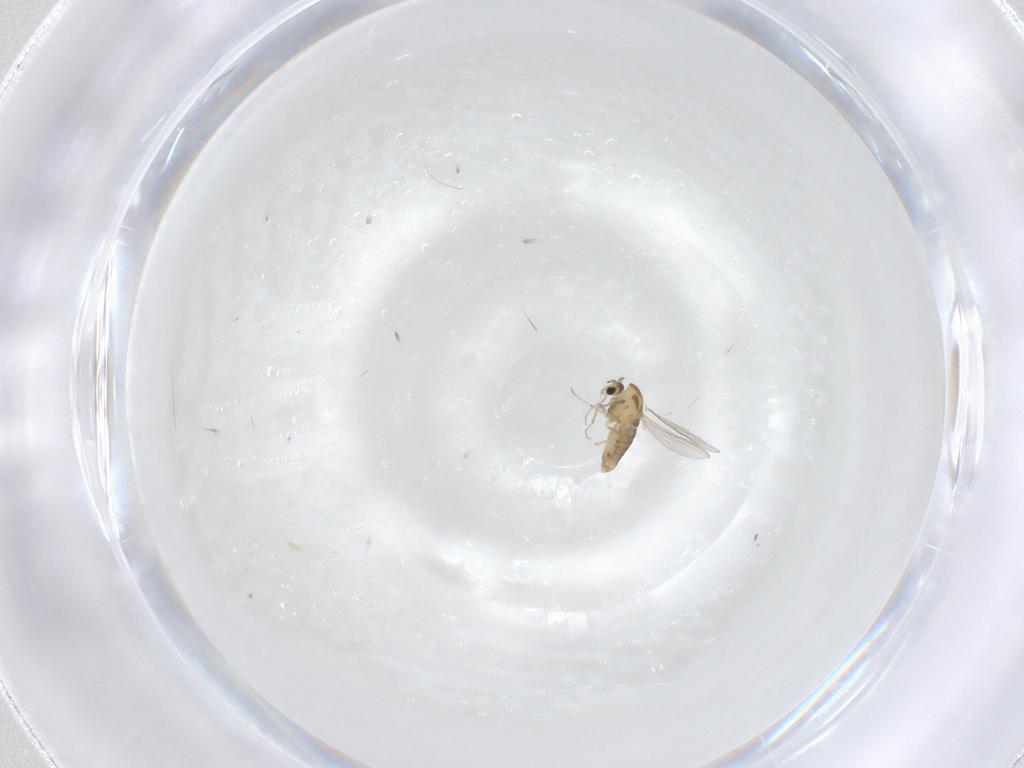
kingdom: Animalia
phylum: Arthropoda
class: Insecta
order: Diptera
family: Chironomidae
